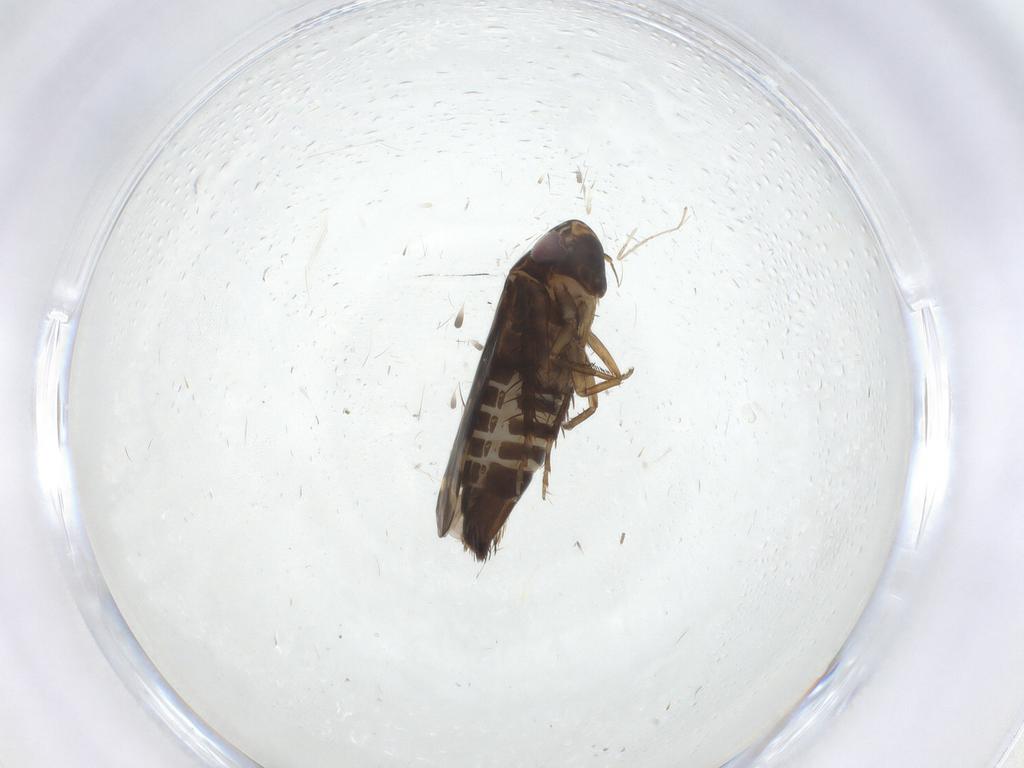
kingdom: Animalia
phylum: Arthropoda
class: Insecta
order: Hemiptera
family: Cicadellidae
